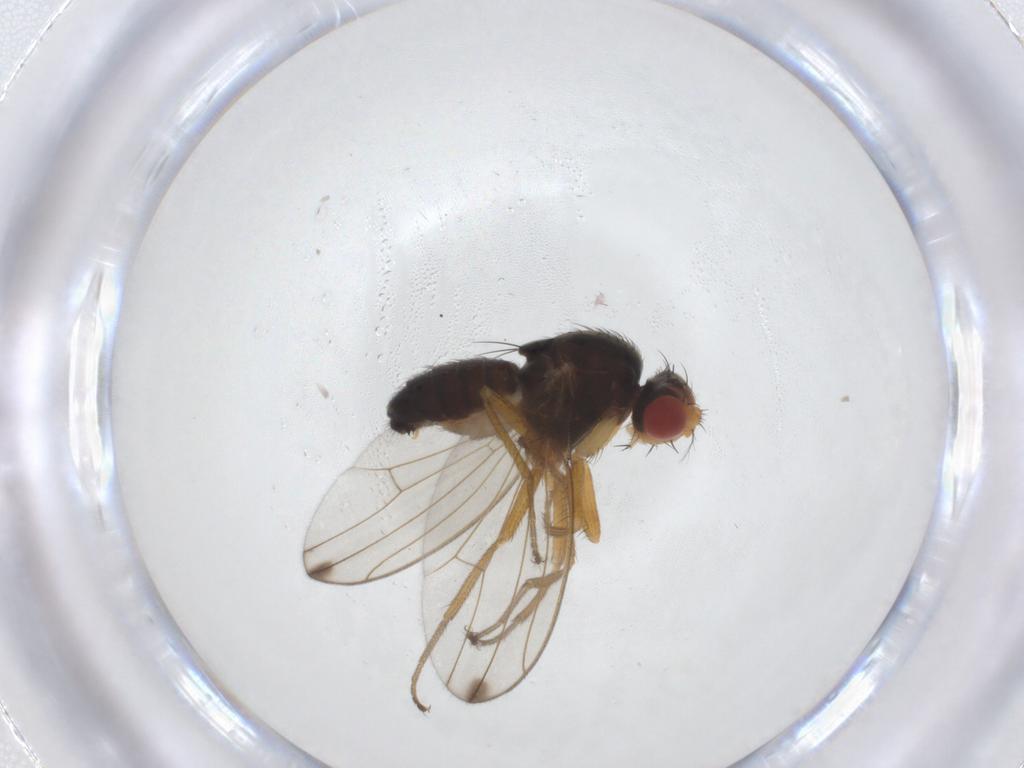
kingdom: Animalia
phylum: Arthropoda
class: Insecta
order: Diptera
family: Drosophilidae
